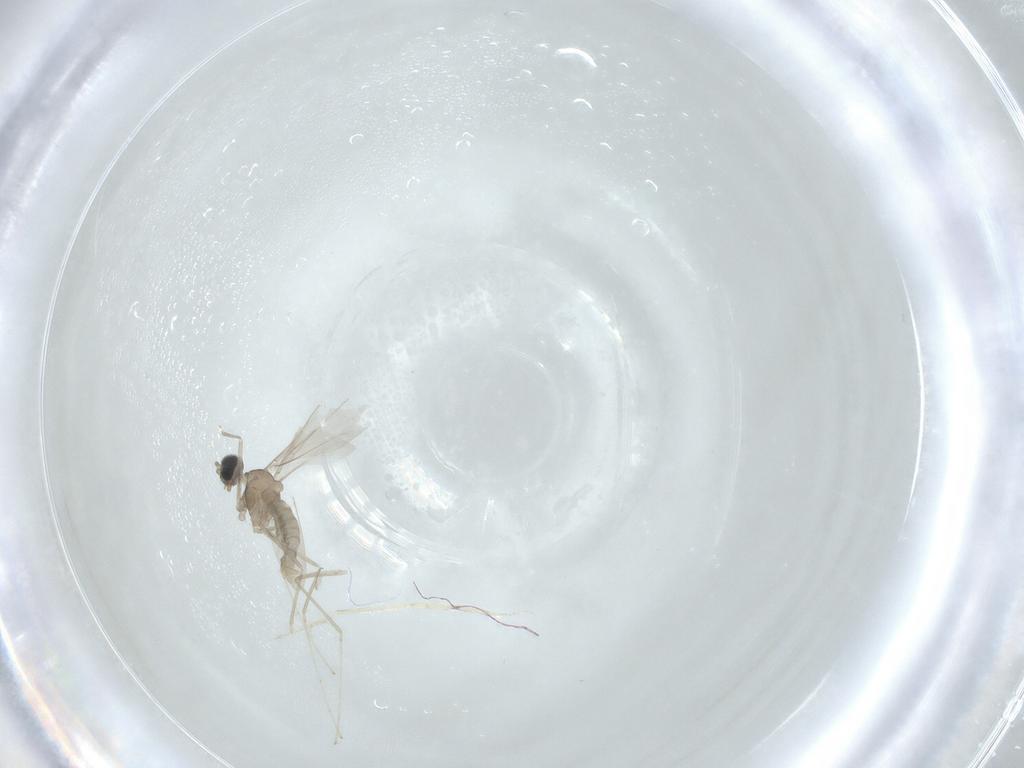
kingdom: Animalia
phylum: Arthropoda
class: Insecta
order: Diptera
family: Cecidomyiidae
